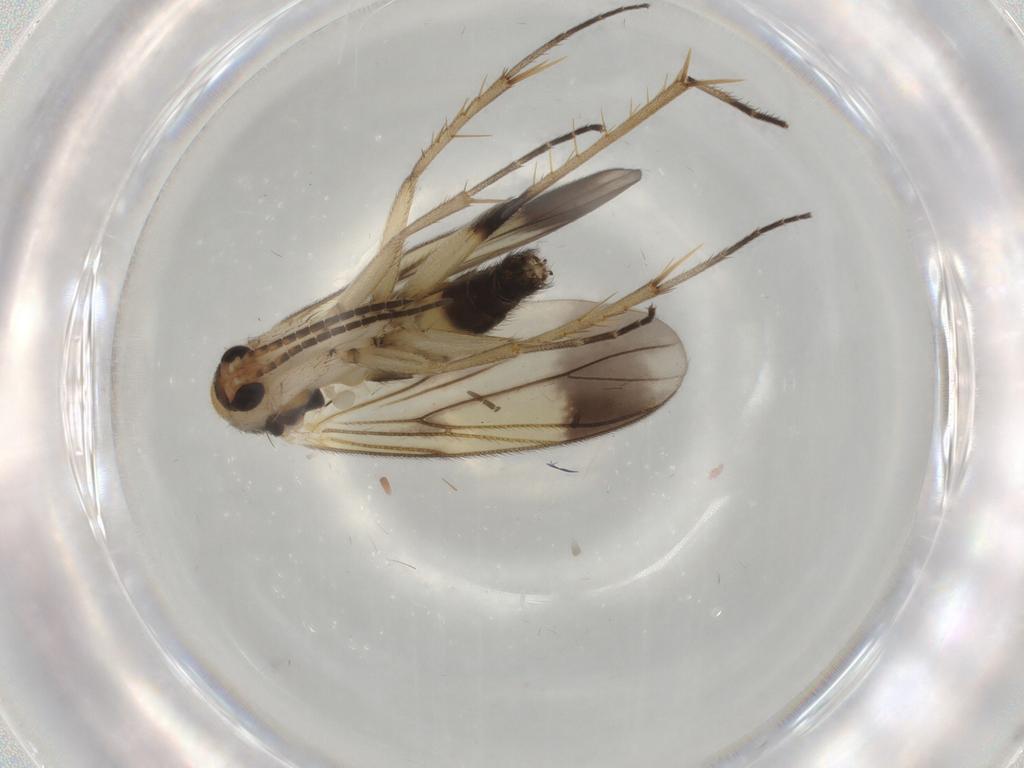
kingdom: Animalia
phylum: Arthropoda
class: Insecta
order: Diptera
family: Mycetophilidae
